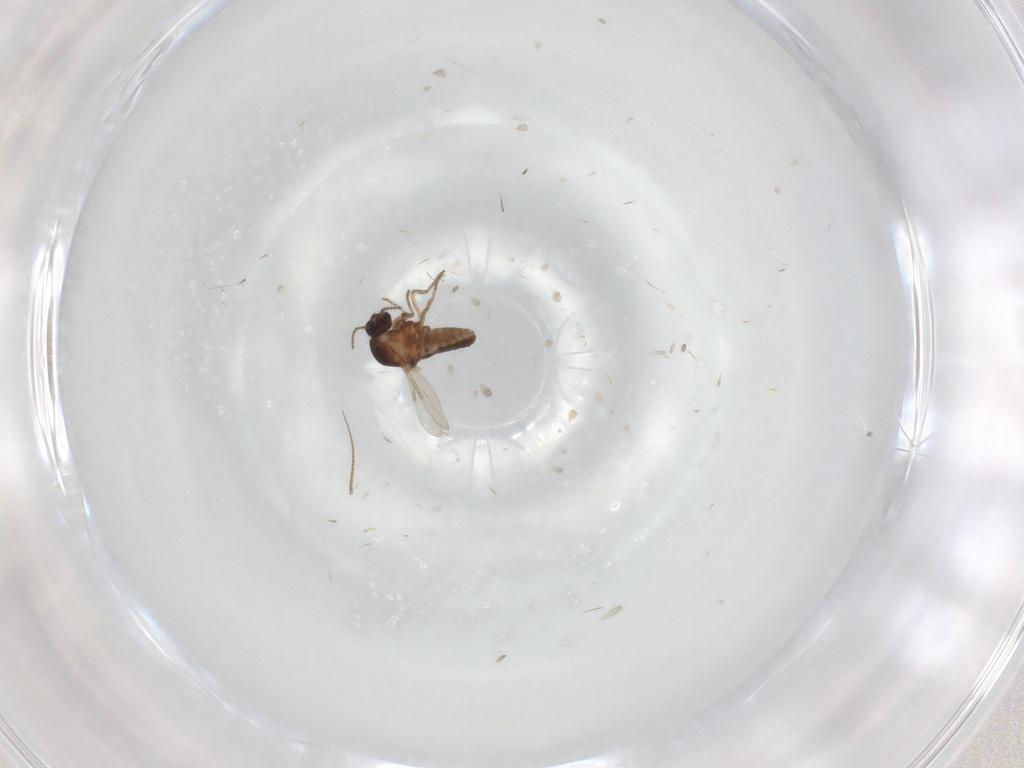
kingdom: Animalia
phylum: Arthropoda
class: Insecta
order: Diptera
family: Ceratopogonidae
